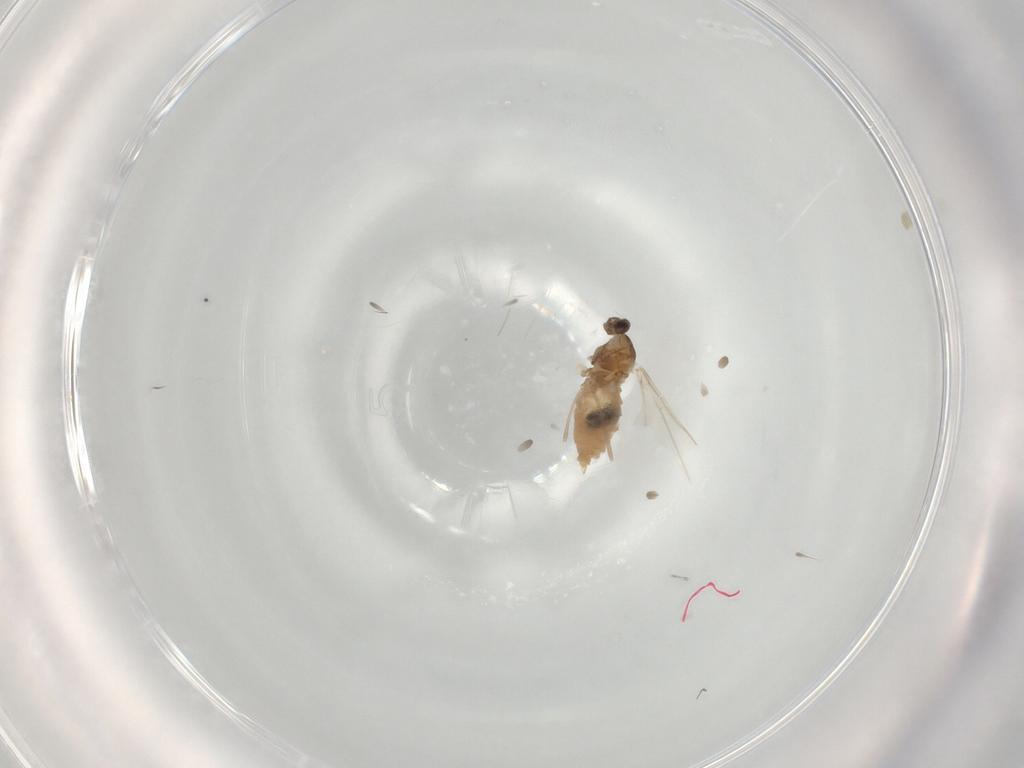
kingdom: Animalia
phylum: Arthropoda
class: Insecta
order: Diptera
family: Cecidomyiidae
